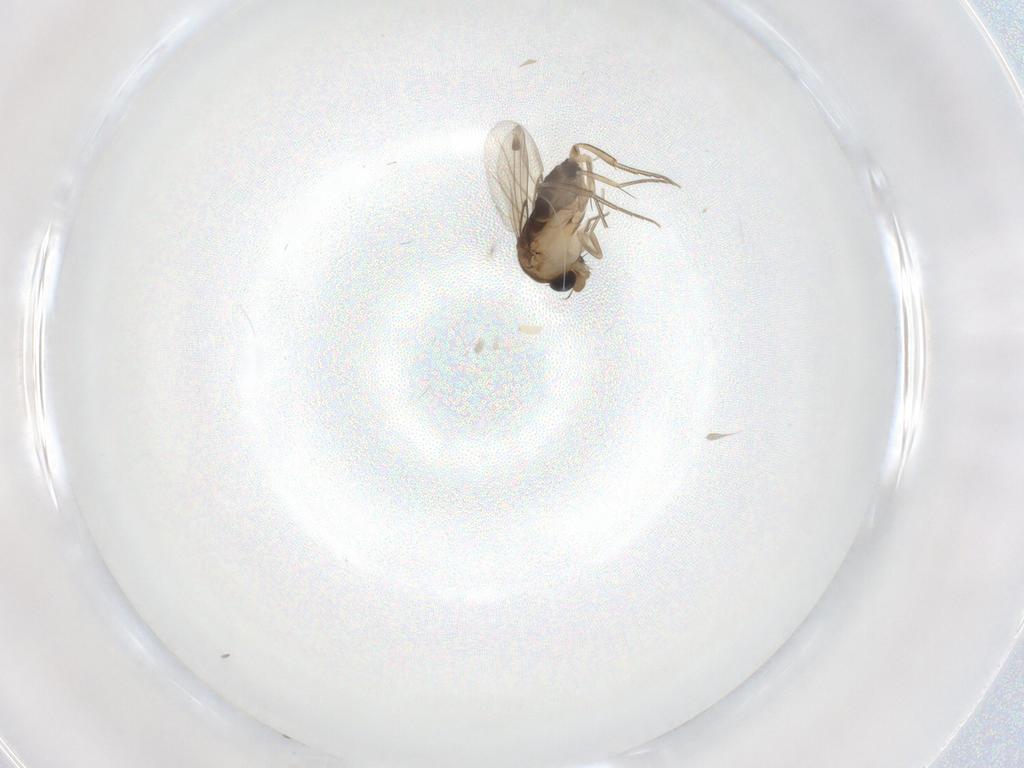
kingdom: Animalia
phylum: Arthropoda
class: Insecta
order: Diptera
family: Phoridae
